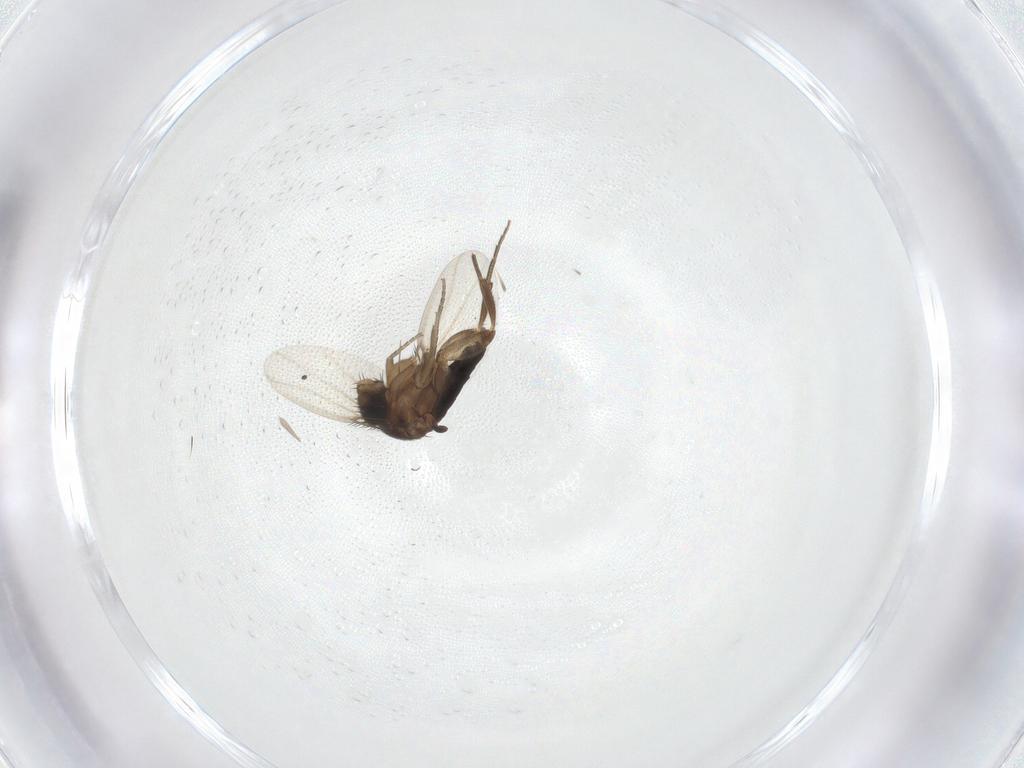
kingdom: Animalia
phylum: Arthropoda
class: Insecta
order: Diptera
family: Phoridae
